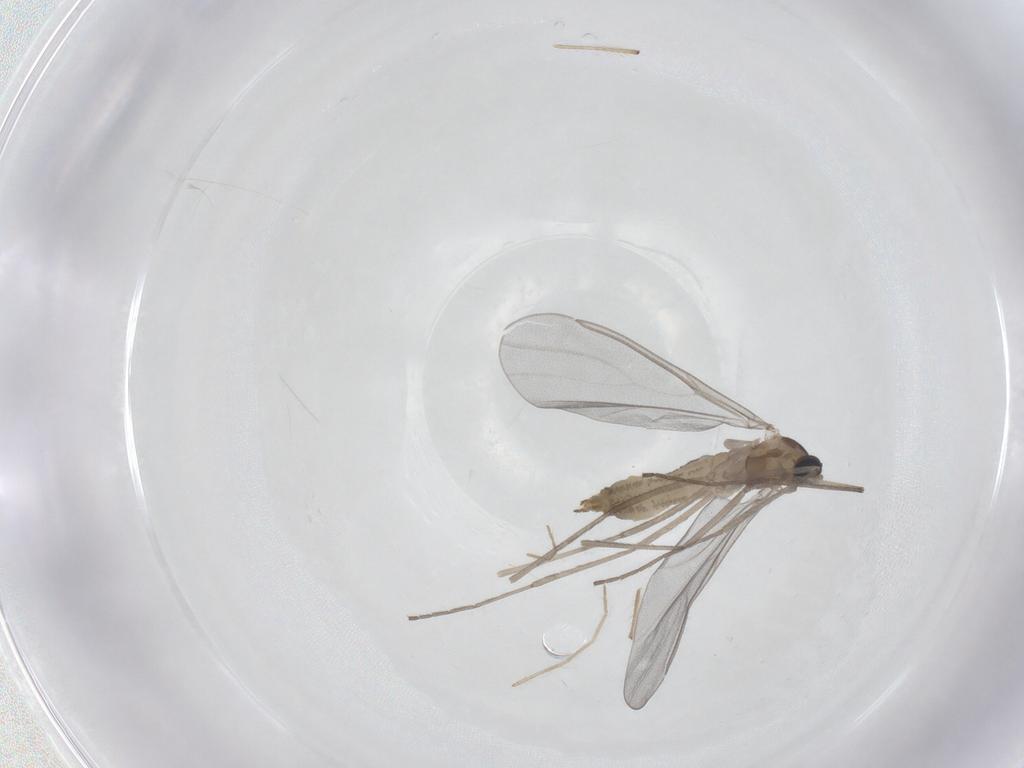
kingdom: Animalia
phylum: Arthropoda
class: Insecta
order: Diptera
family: Cecidomyiidae
